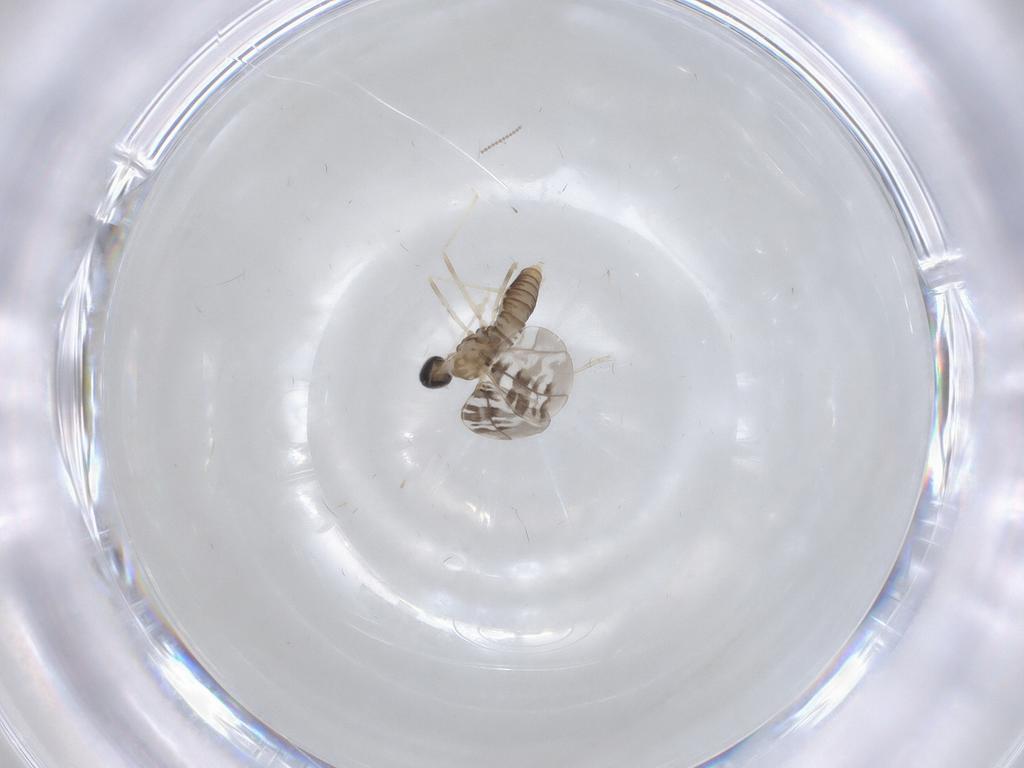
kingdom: Animalia
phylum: Arthropoda
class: Insecta
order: Diptera
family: Cecidomyiidae
